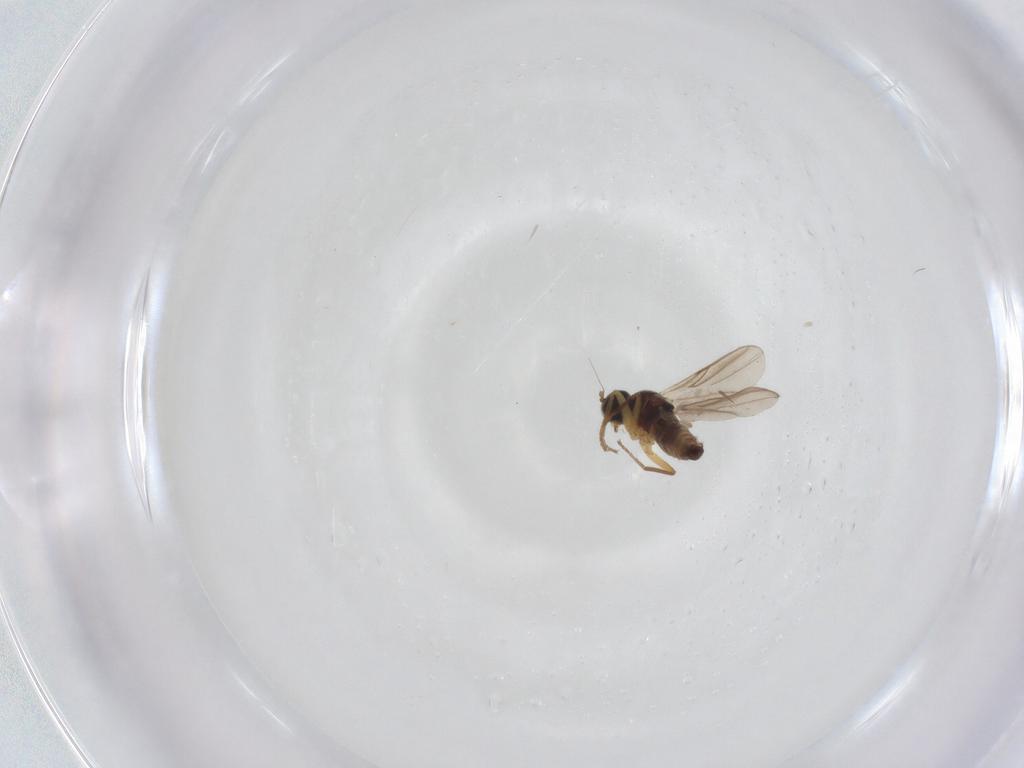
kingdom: Animalia
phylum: Arthropoda
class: Insecta
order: Diptera
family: Hybotidae
